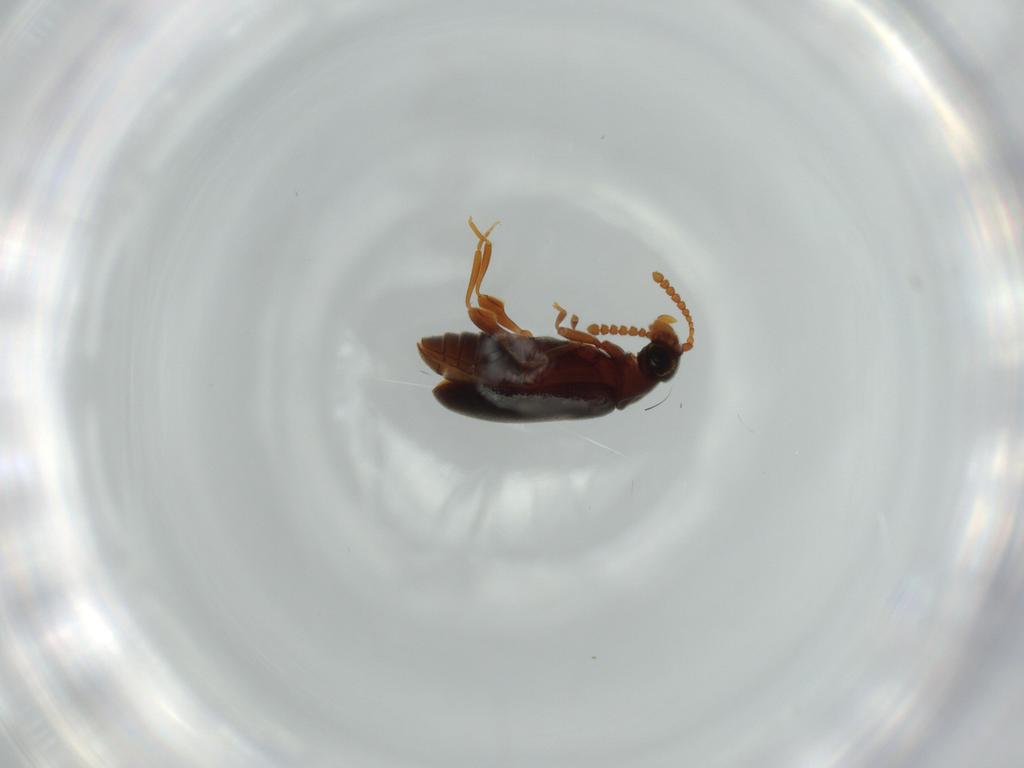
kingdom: Animalia
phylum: Arthropoda
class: Insecta
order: Coleoptera
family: Aderidae
